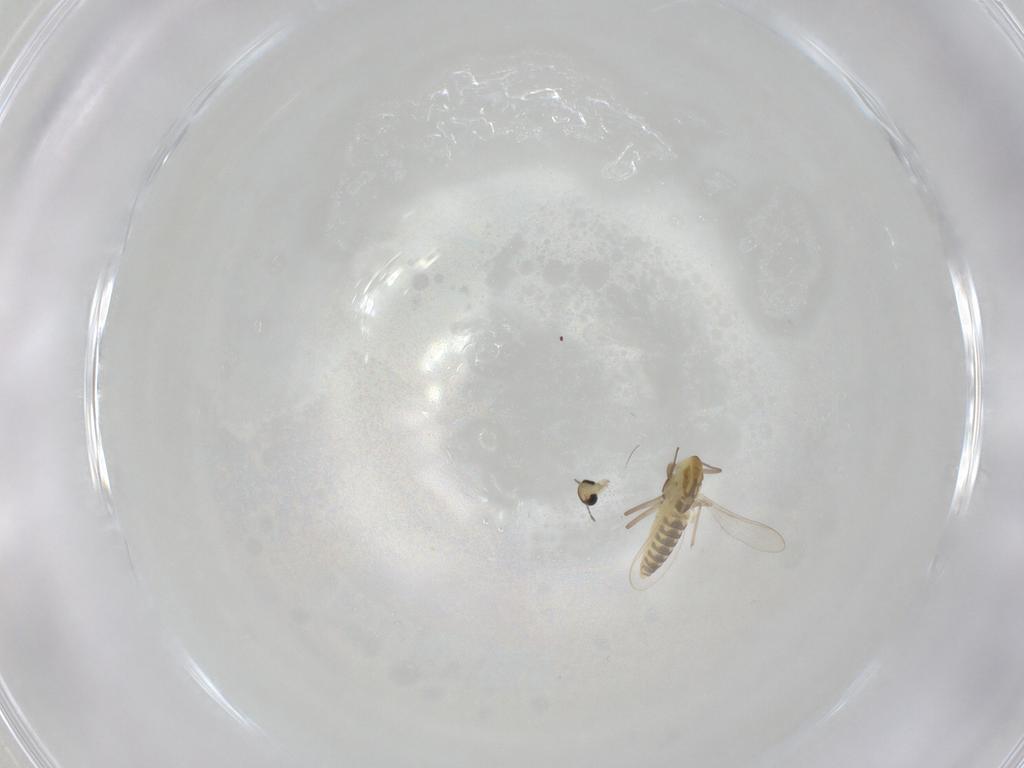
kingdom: Animalia
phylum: Arthropoda
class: Insecta
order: Diptera
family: Chironomidae
